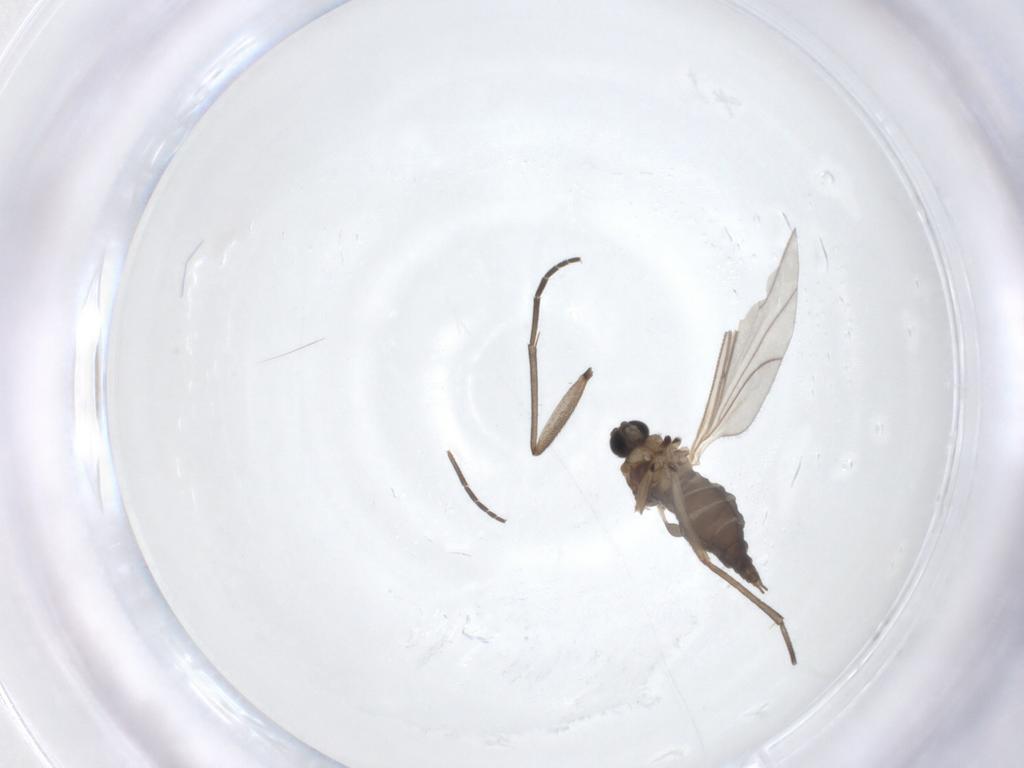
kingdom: Animalia
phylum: Arthropoda
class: Insecta
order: Diptera
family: Sciaridae
